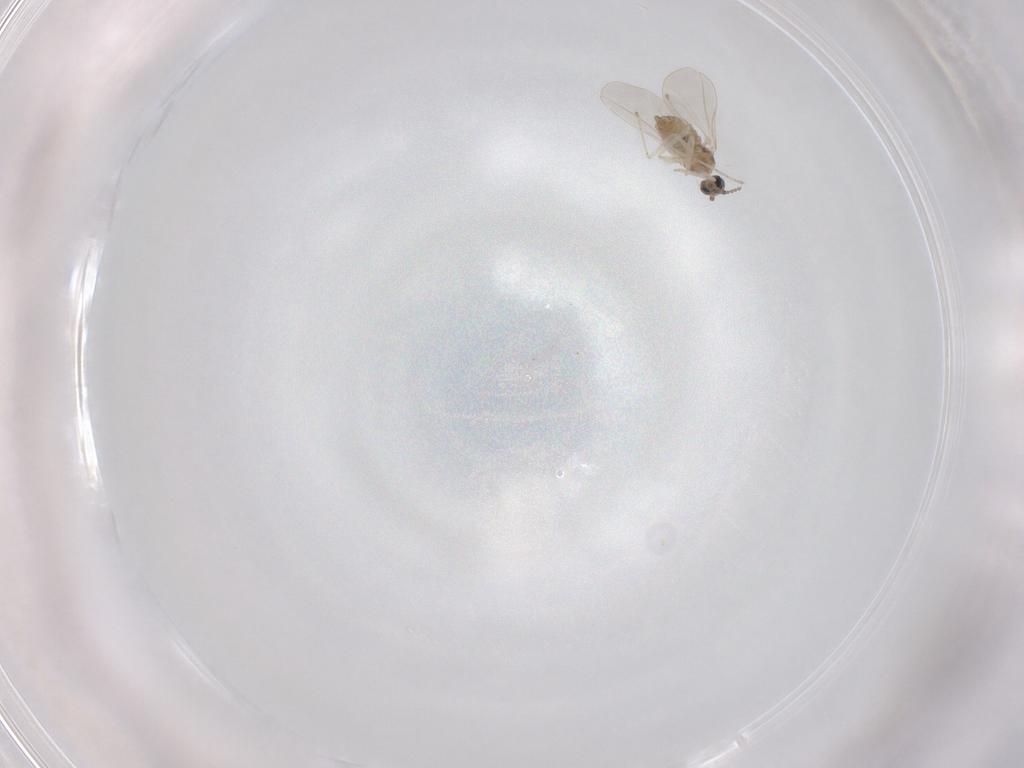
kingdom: Animalia
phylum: Arthropoda
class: Insecta
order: Diptera
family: Cecidomyiidae
